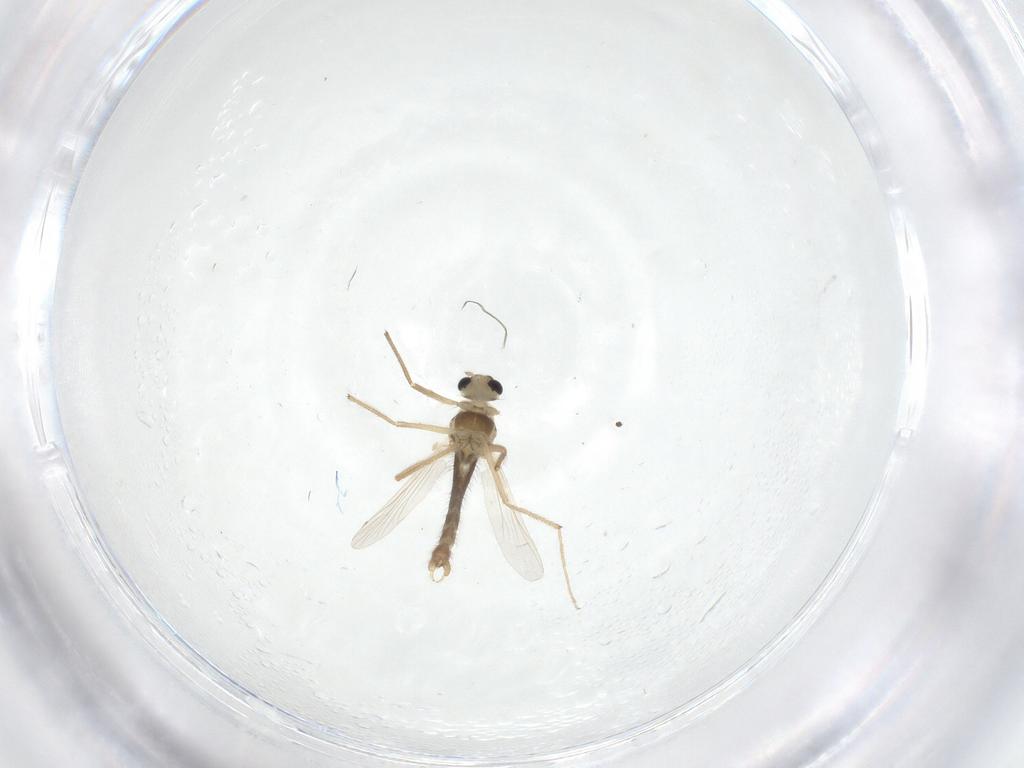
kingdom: Animalia
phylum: Arthropoda
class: Insecta
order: Diptera
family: Chironomidae
